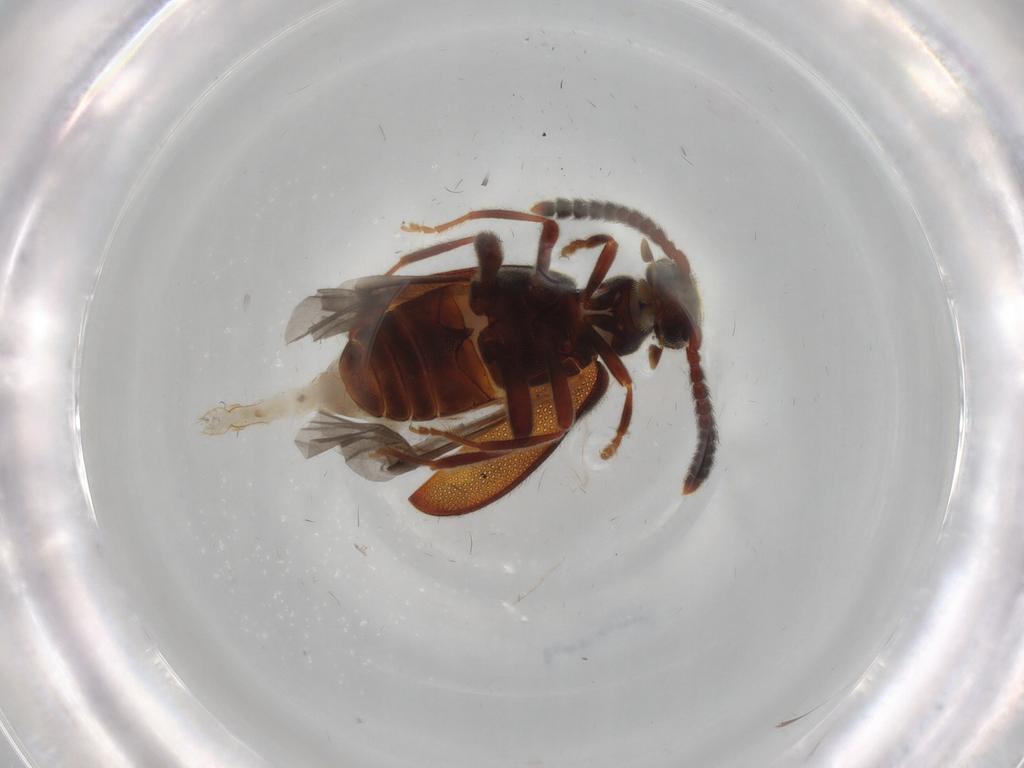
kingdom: Animalia
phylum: Arthropoda
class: Insecta
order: Coleoptera
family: Nitidulidae
